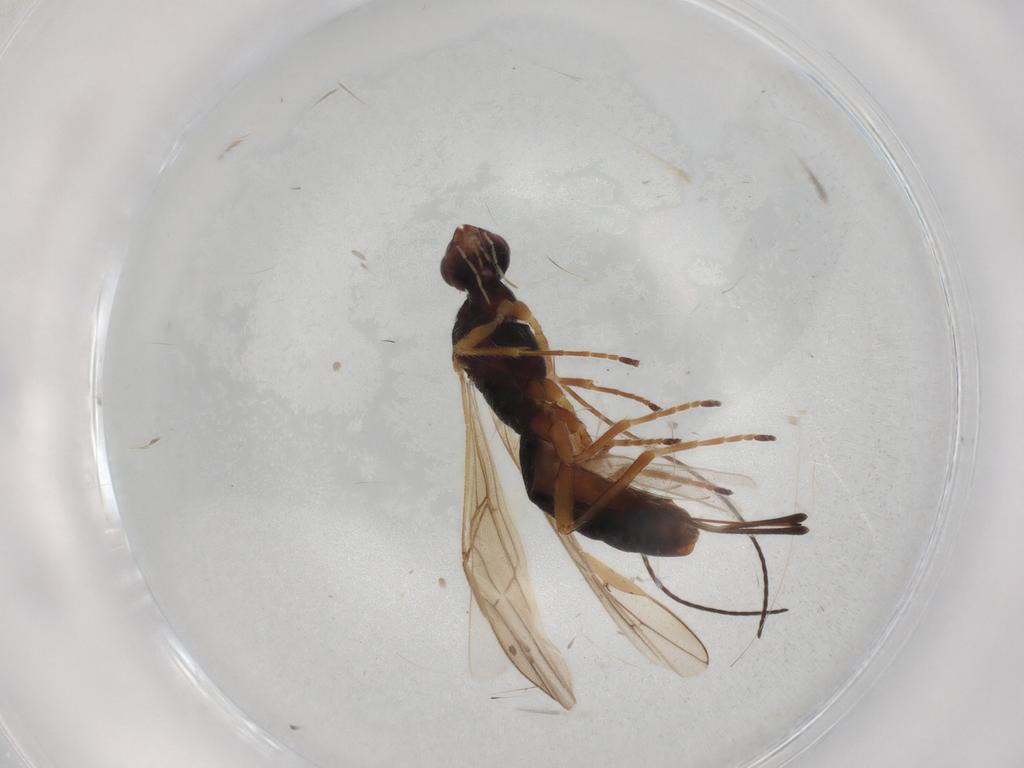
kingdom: Animalia
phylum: Arthropoda
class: Insecta
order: Hymenoptera
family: Braconidae
